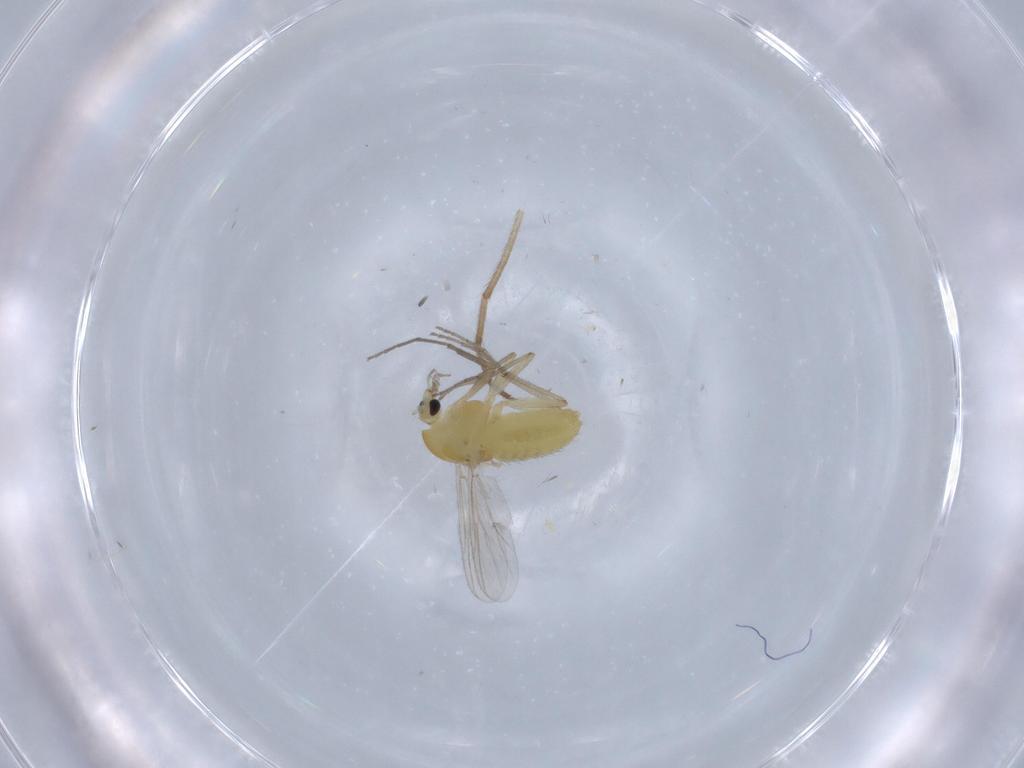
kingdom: Animalia
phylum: Arthropoda
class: Insecta
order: Diptera
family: Chironomidae
